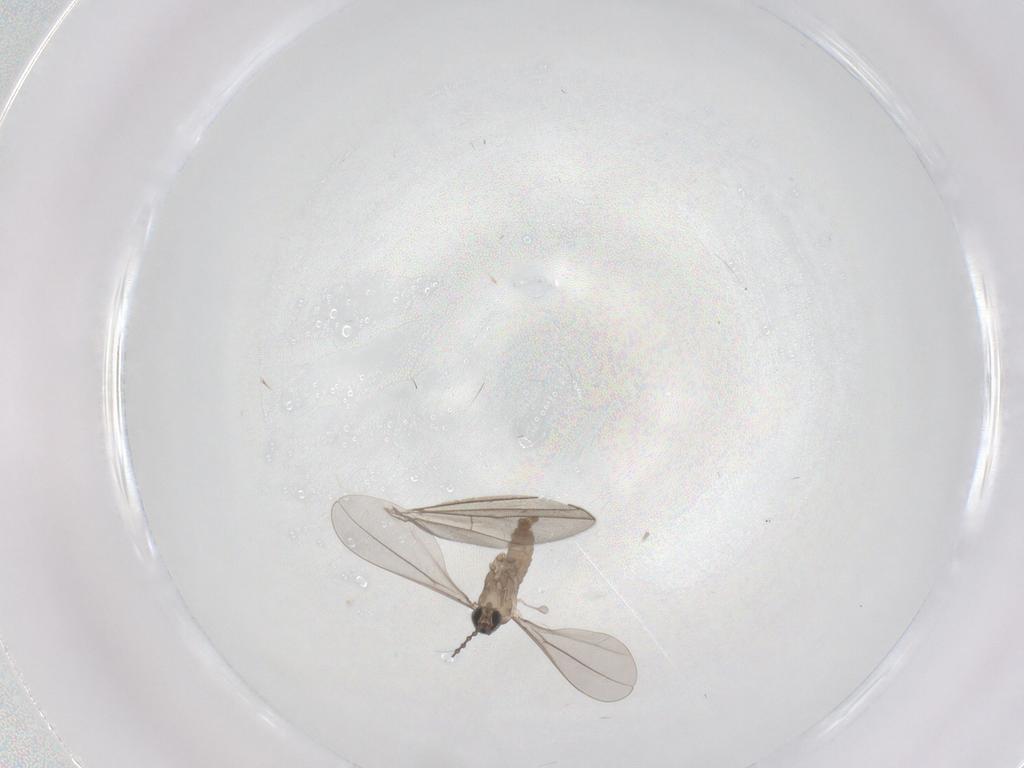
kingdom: Animalia
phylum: Arthropoda
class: Insecta
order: Diptera
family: Chironomidae
